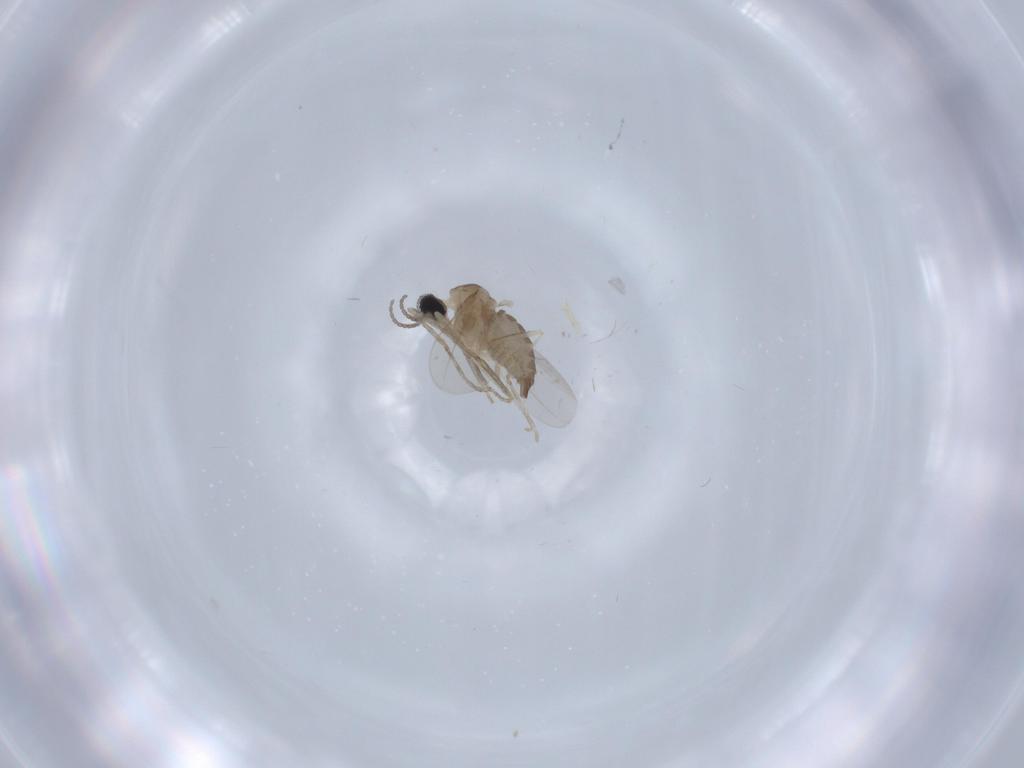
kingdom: Animalia
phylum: Arthropoda
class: Insecta
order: Diptera
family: Cecidomyiidae
